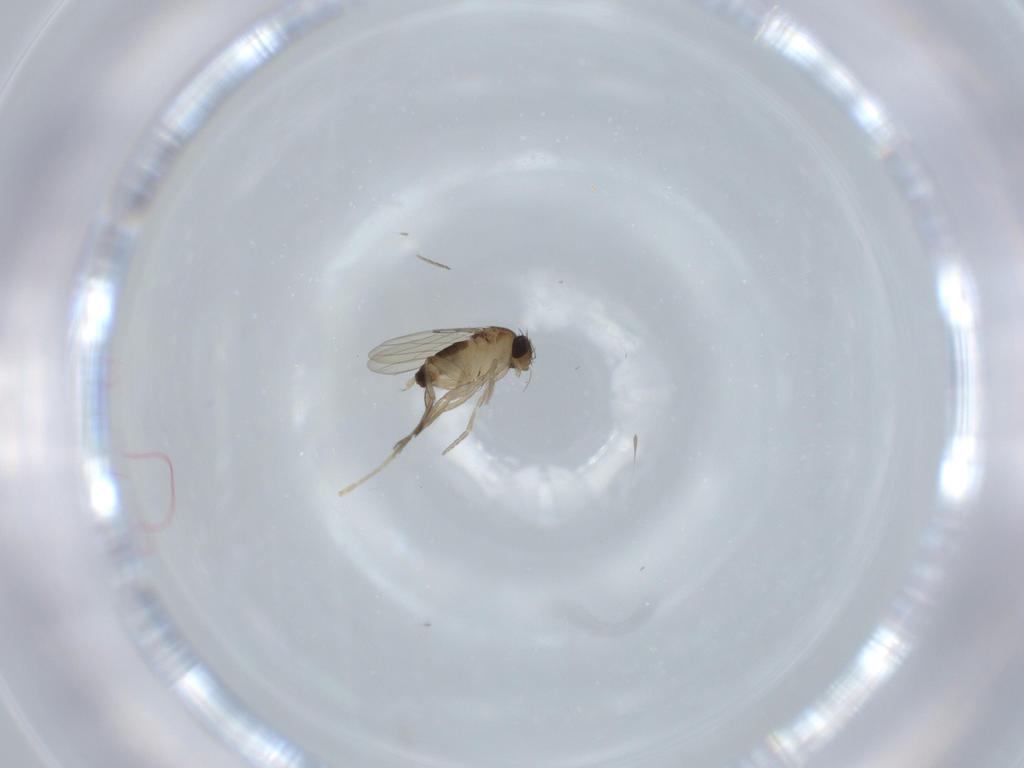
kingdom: Animalia
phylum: Arthropoda
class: Insecta
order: Diptera
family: Phoridae
